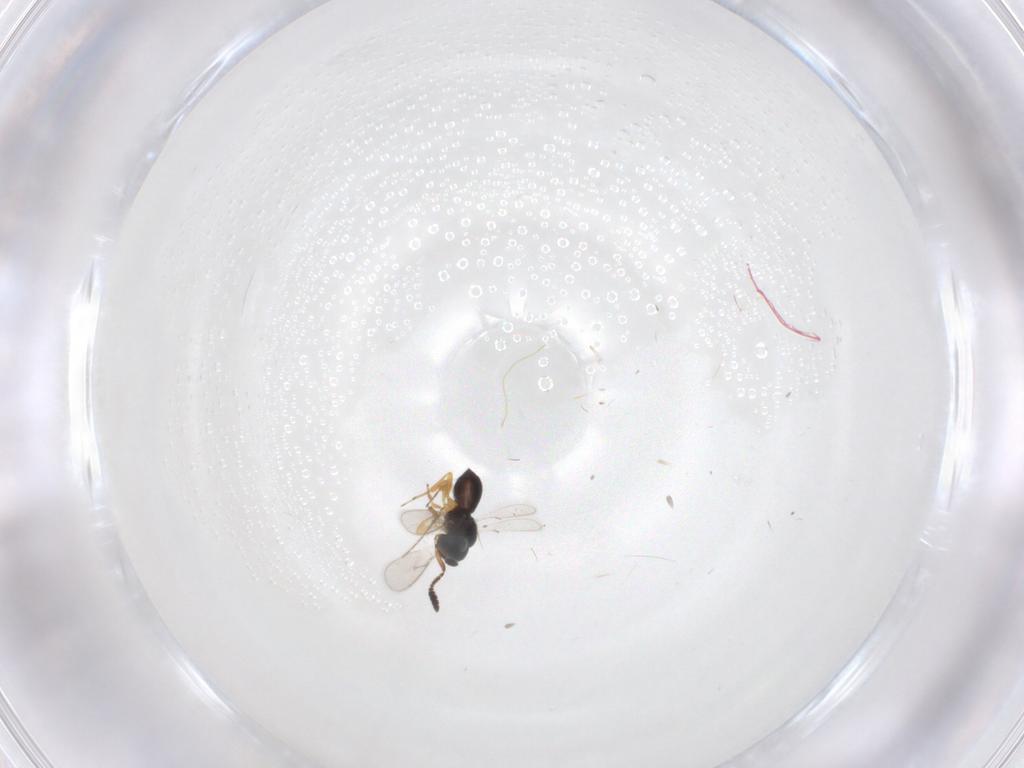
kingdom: Animalia
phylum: Arthropoda
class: Insecta
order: Hymenoptera
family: Scelionidae
